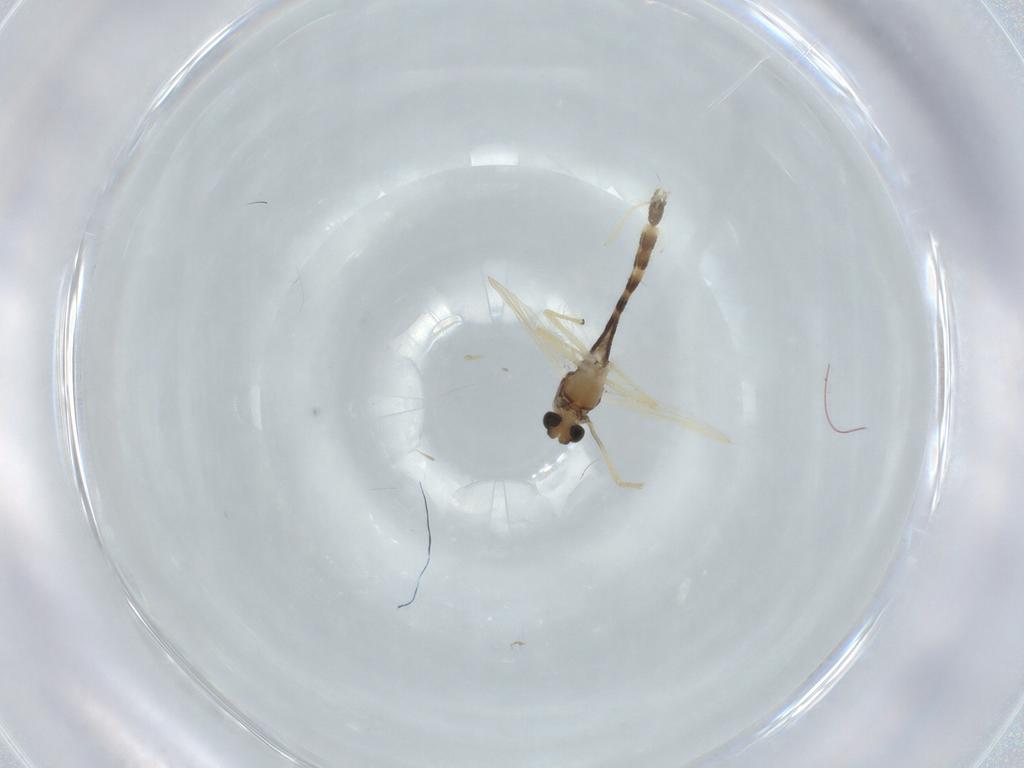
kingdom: Animalia
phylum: Arthropoda
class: Insecta
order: Diptera
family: Chironomidae
